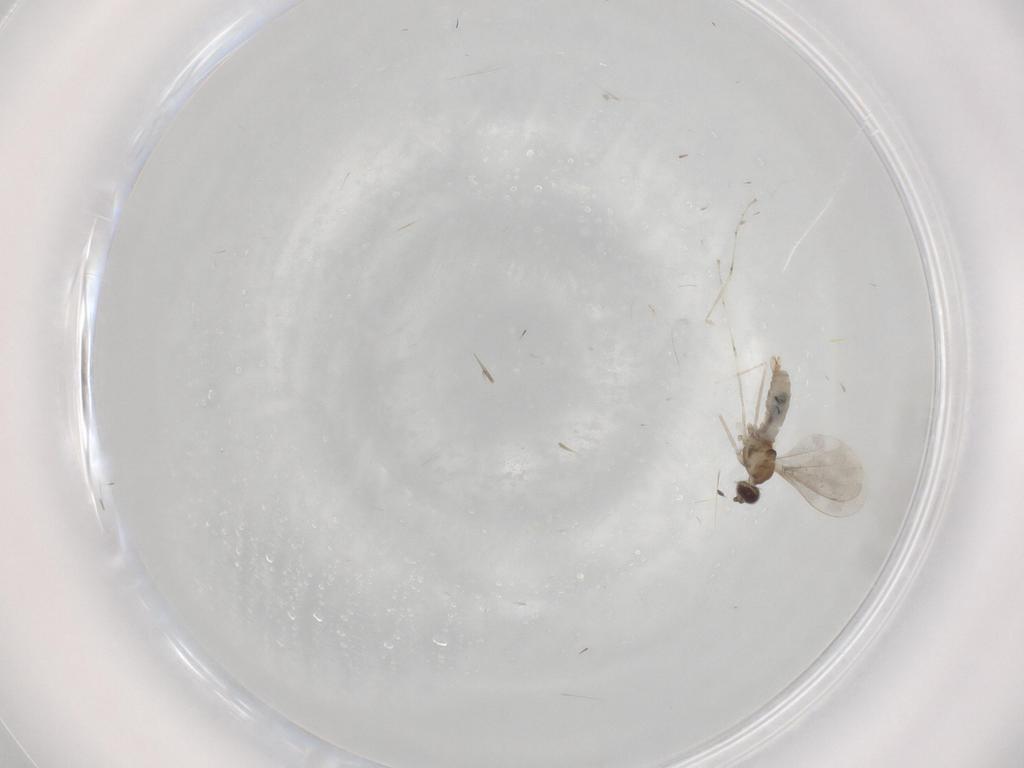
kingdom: Animalia
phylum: Arthropoda
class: Insecta
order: Diptera
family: Cecidomyiidae
